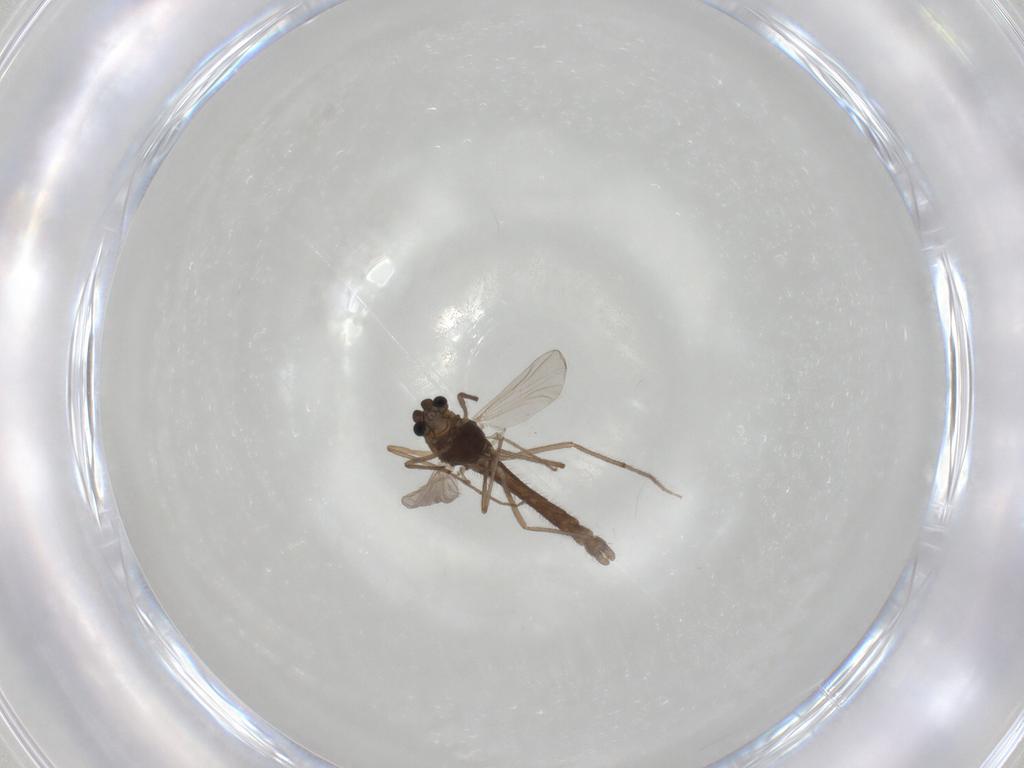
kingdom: Animalia
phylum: Arthropoda
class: Insecta
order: Diptera
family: Chironomidae
